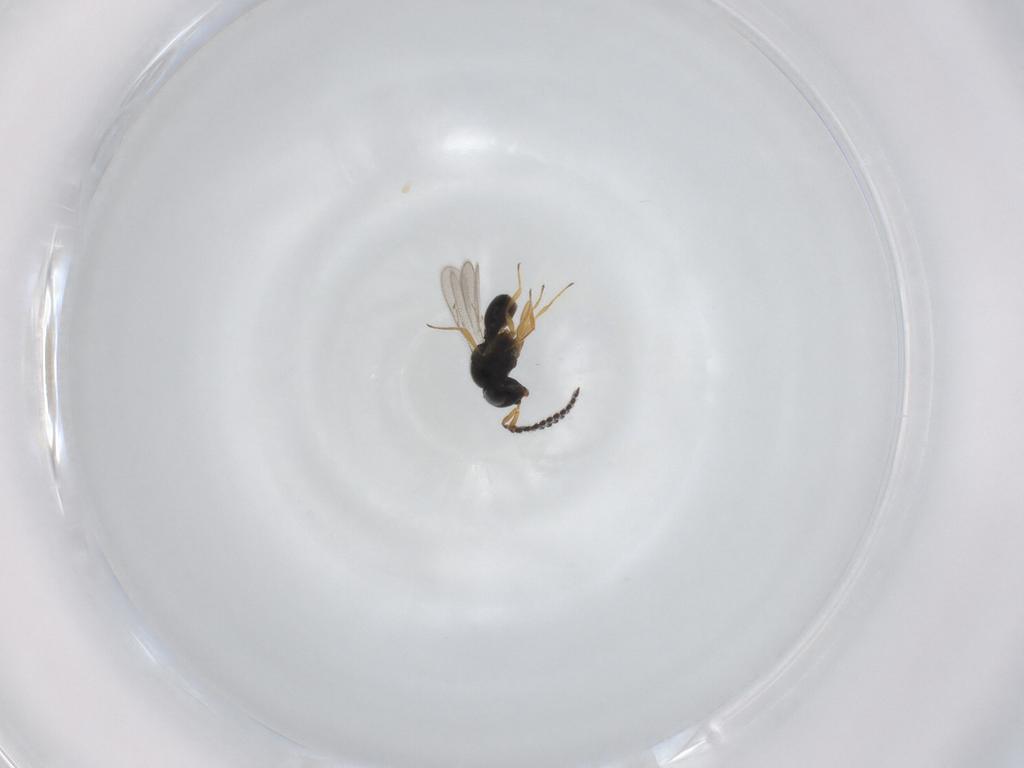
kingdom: Animalia
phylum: Arthropoda
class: Insecta
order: Hymenoptera
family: Scelionidae
